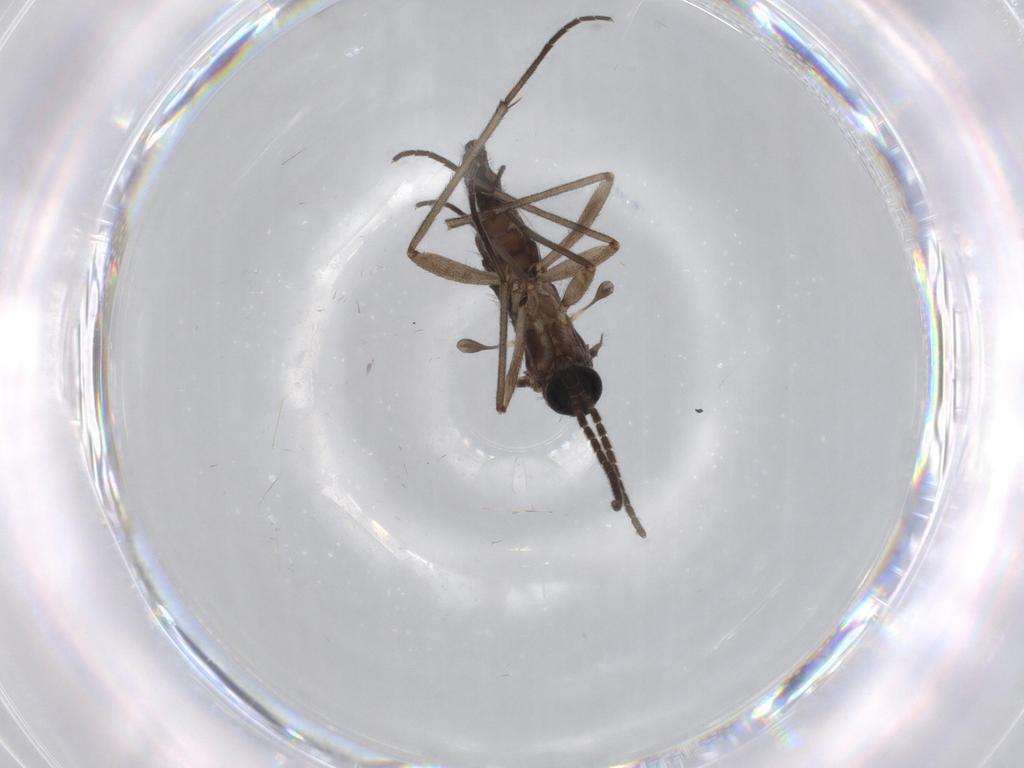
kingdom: Animalia
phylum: Arthropoda
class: Insecta
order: Diptera
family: Sciaridae
